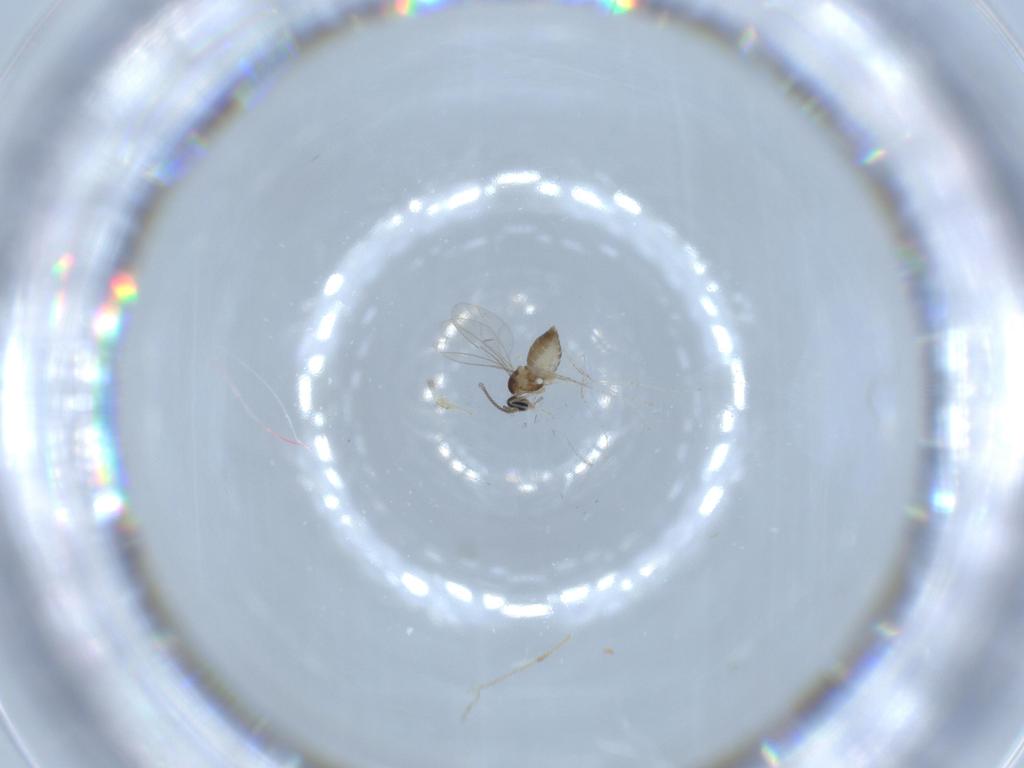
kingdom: Animalia
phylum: Arthropoda
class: Insecta
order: Diptera
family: Cecidomyiidae
